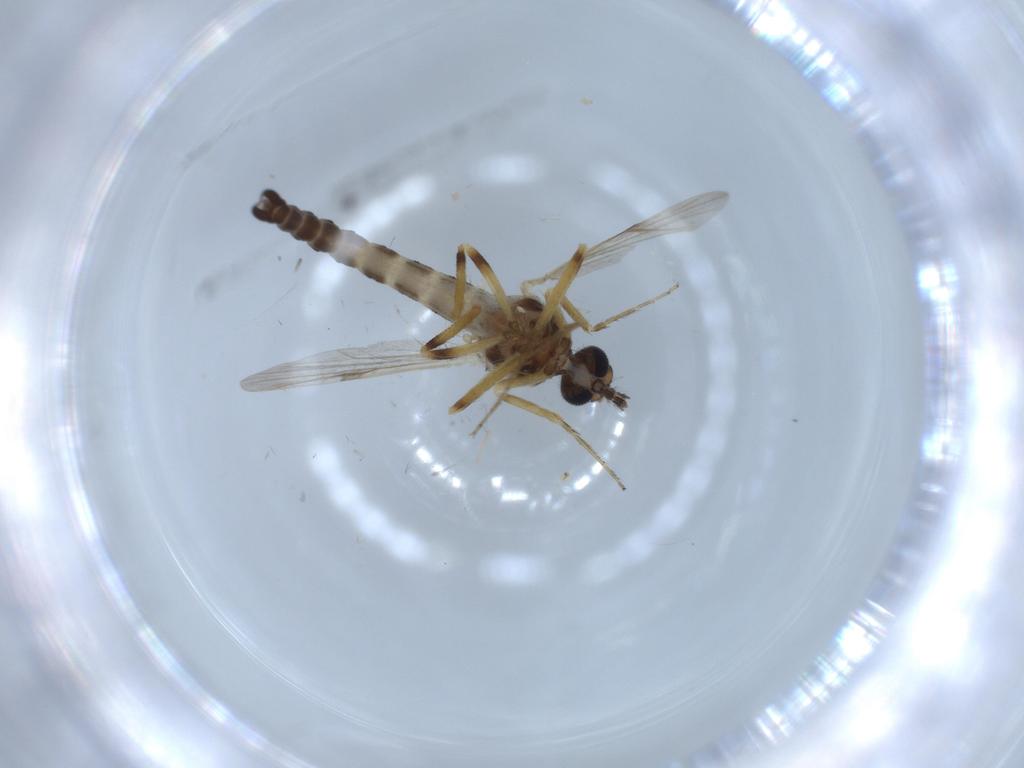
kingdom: Animalia
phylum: Arthropoda
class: Insecta
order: Diptera
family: Ceratopogonidae
